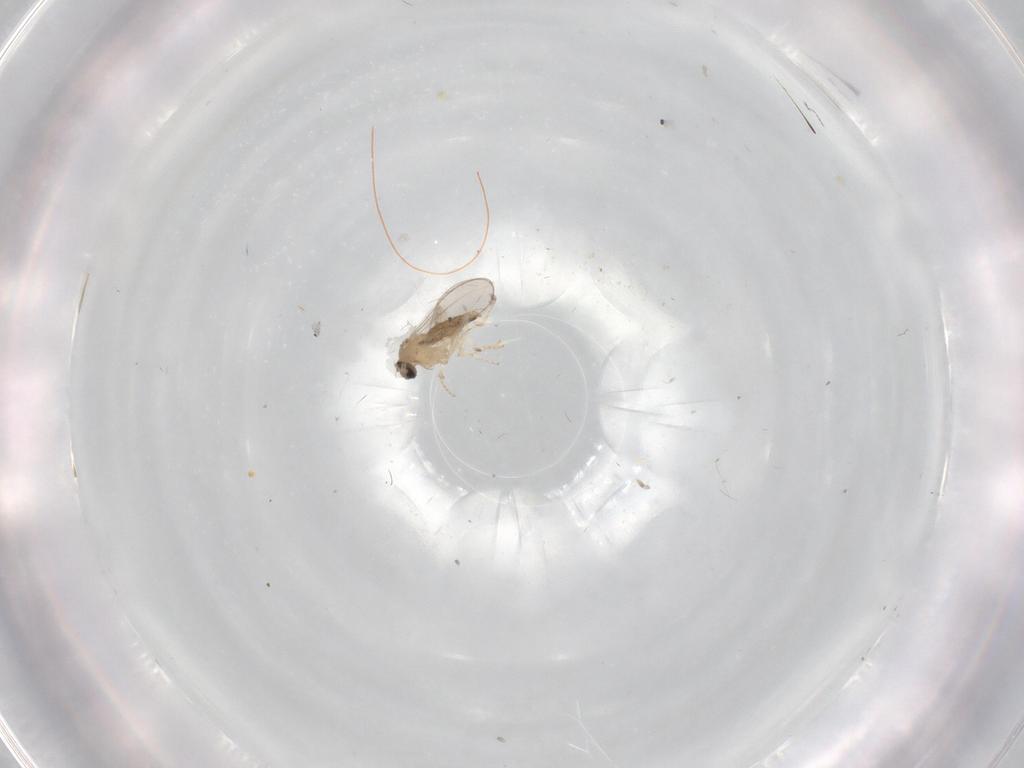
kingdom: Animalia
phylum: Arthropoda
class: Insecta
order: Diptera
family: Cecidomyiidae
